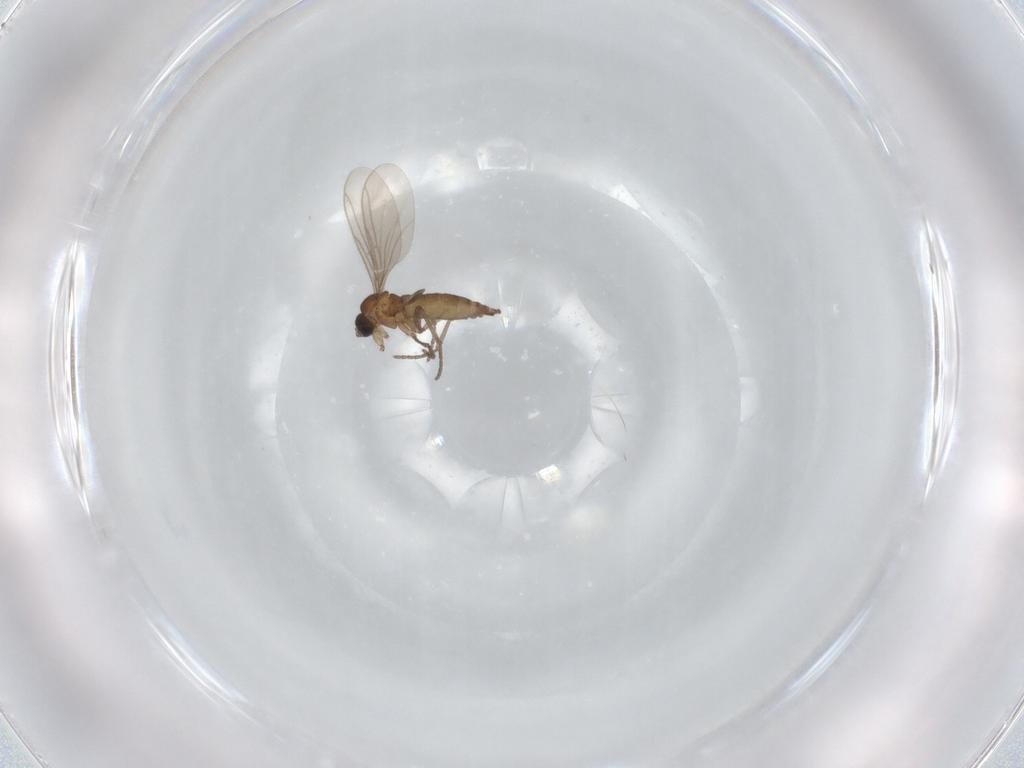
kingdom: Animalia
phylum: Arthropoda
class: Insecta
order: Diptera
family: Sciaridae
